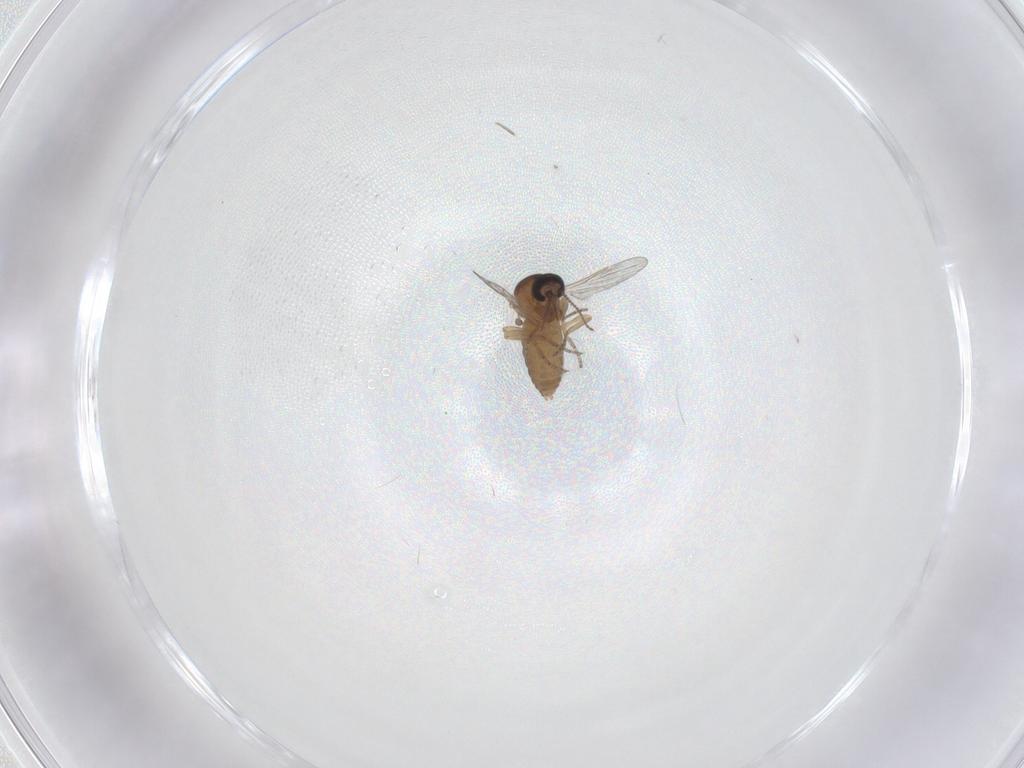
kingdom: Animalia
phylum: Arthropoda
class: Insecta
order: Diptera
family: Ceratopogonidae
